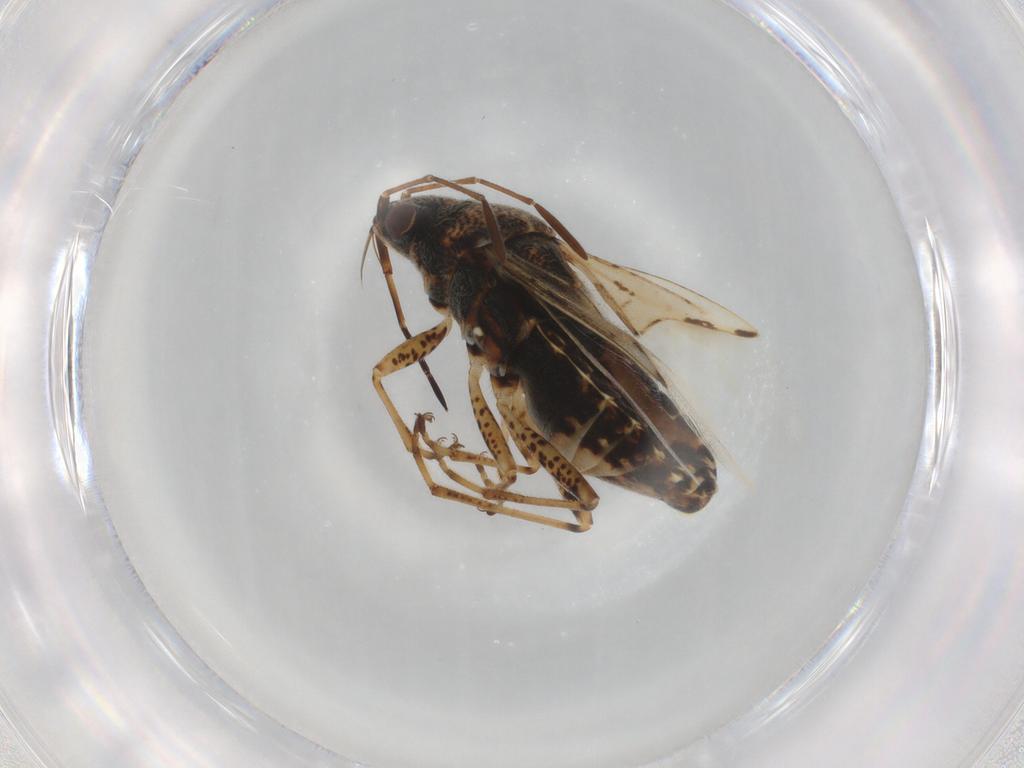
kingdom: Animalia
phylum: Arthropoda
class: Insecta
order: Hemiptera
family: Lygaeidae
